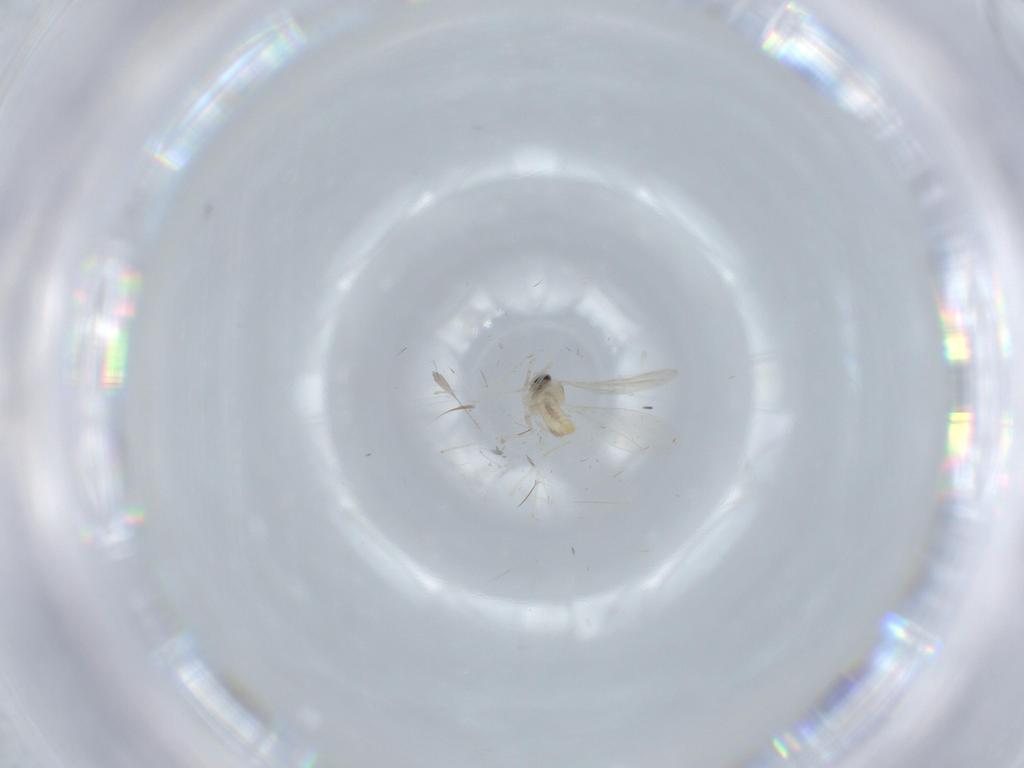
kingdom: Animalia
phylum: Arthropoda
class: Insecta
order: Diptera
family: Cecidomyiidae
